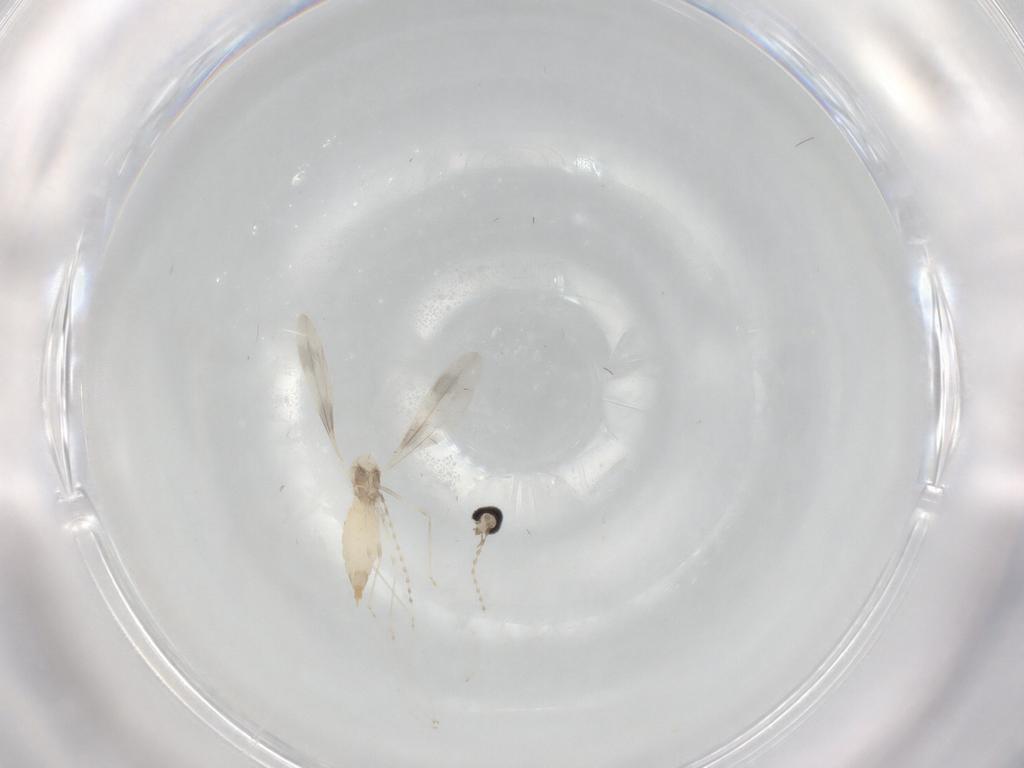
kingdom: Animalia
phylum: Arthropoda
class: Insecta
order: Diptera
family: Cecidomyiidae
